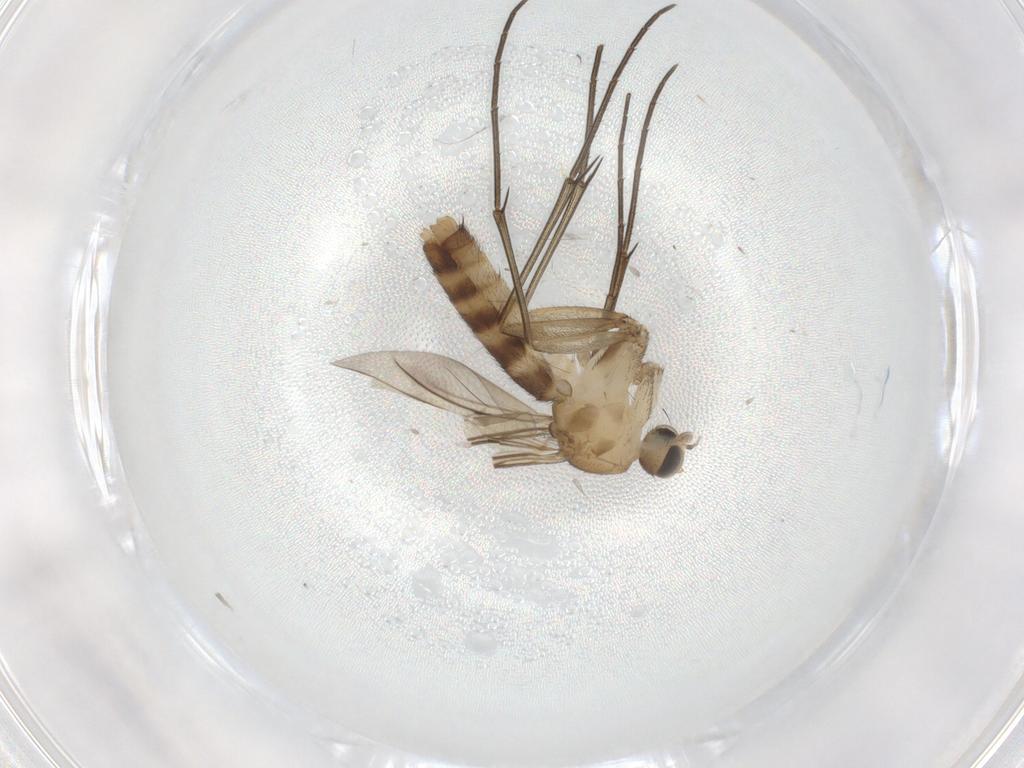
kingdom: Animalia
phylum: Arthropoda
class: Insecta
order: Diptera
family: Keroplatidae
